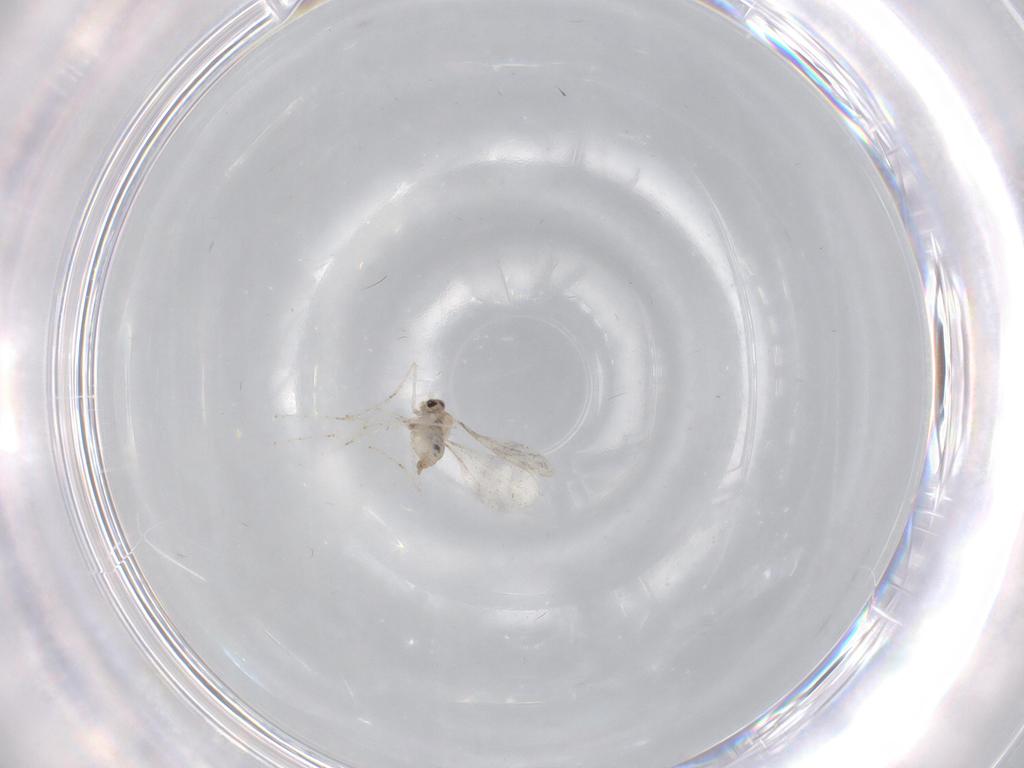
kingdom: Animalia
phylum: Arthropoda
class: Insecta
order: Diptera
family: Cecidomyiidae
